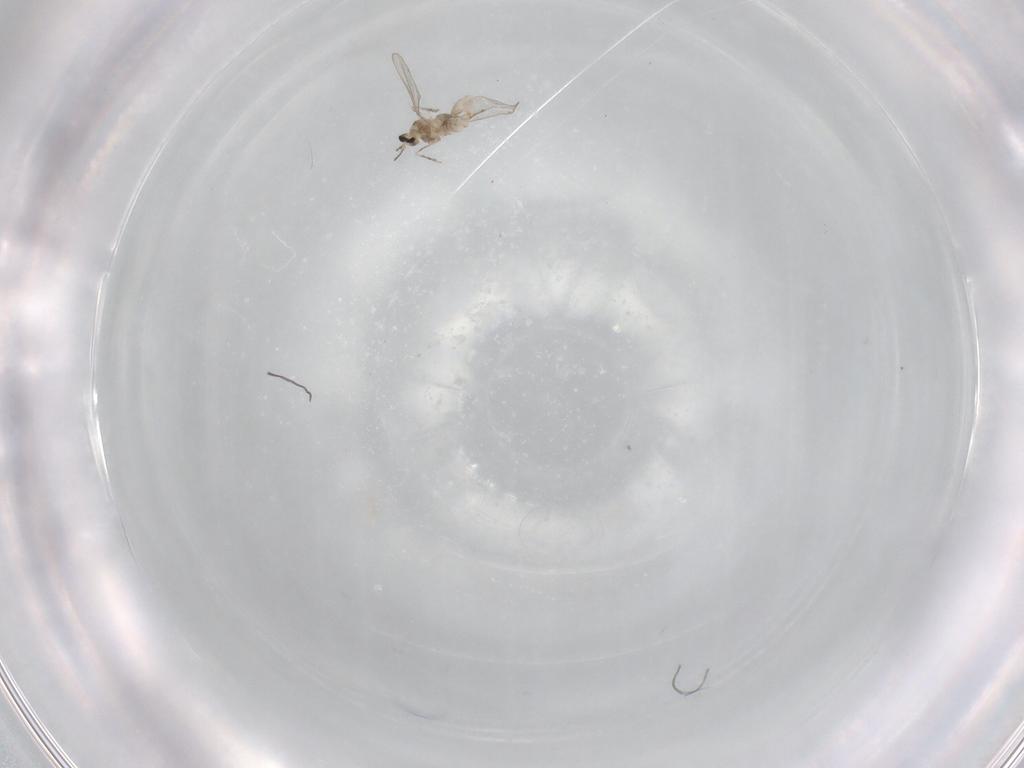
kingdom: Animalia
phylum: Arthropoda
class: Insecta
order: Diptera
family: Cecidomyiidae
